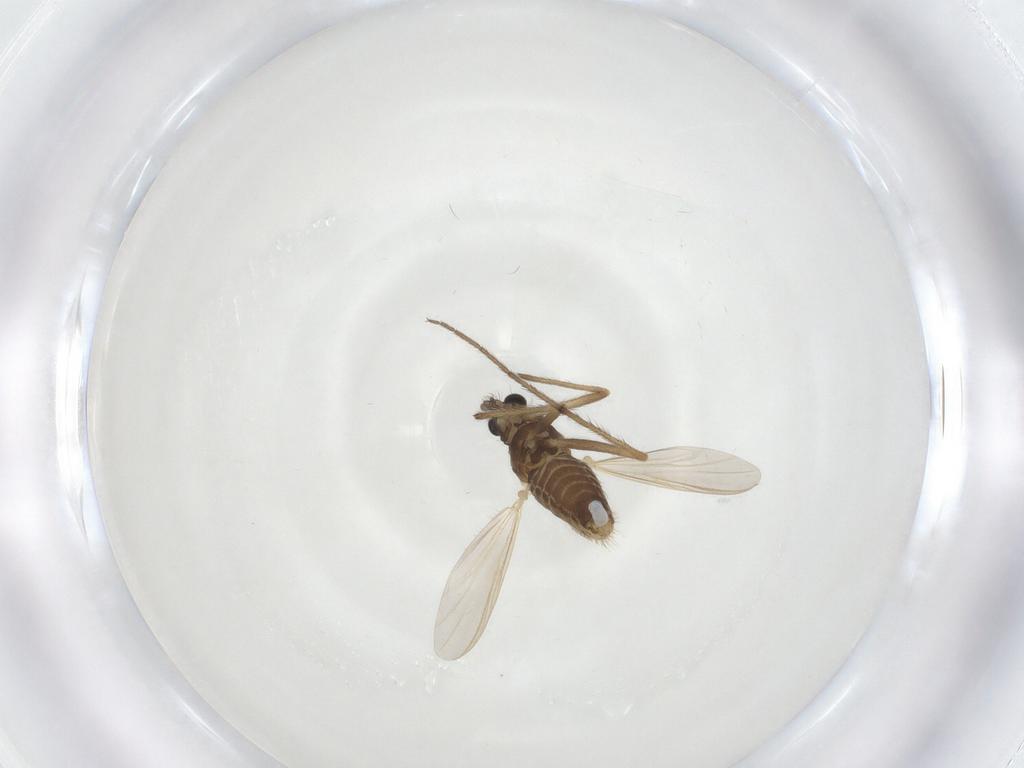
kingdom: Animalia
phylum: Arthropoda
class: Insecta
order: Diptera
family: Chironomidae
